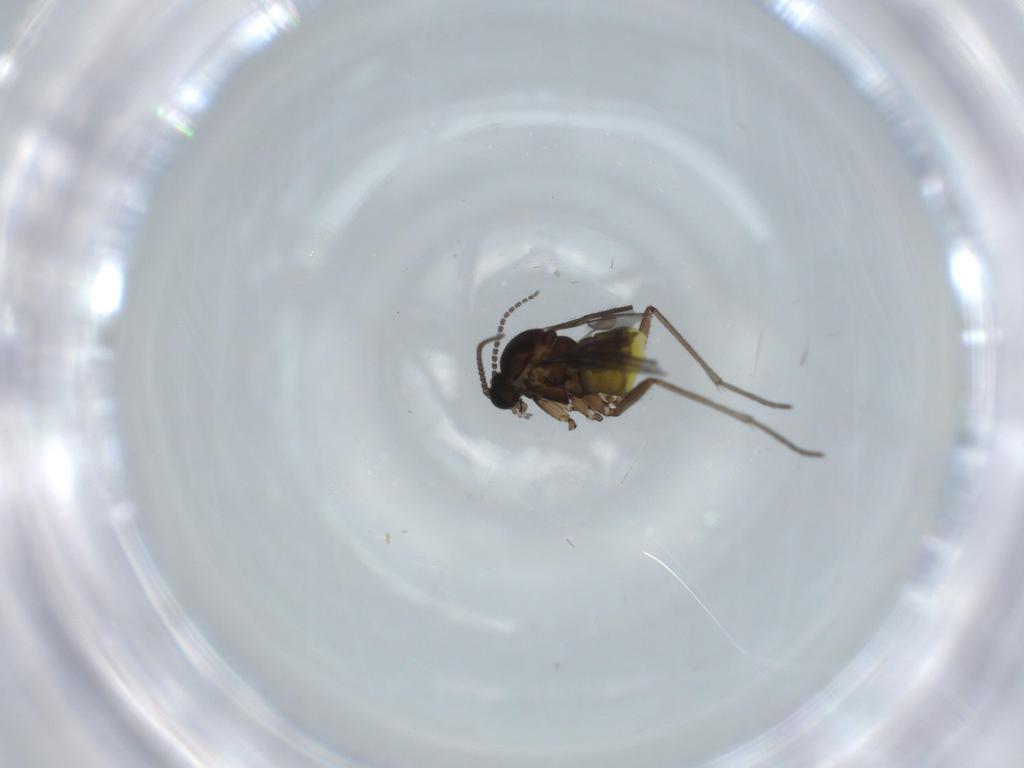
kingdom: Animalia
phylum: Arthropoda
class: Insecta
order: Diptera
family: Sciaridae
